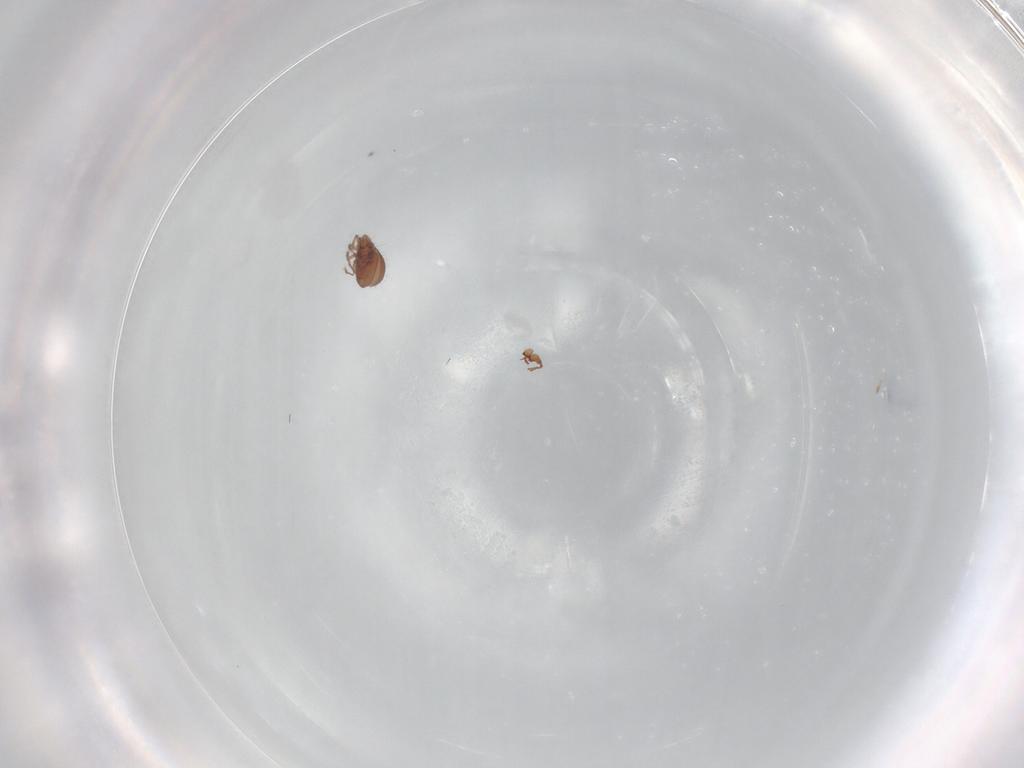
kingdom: Animalia
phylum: Arthropoda
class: Arachnida
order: Sarcoptiformes
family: Humerobatidae
